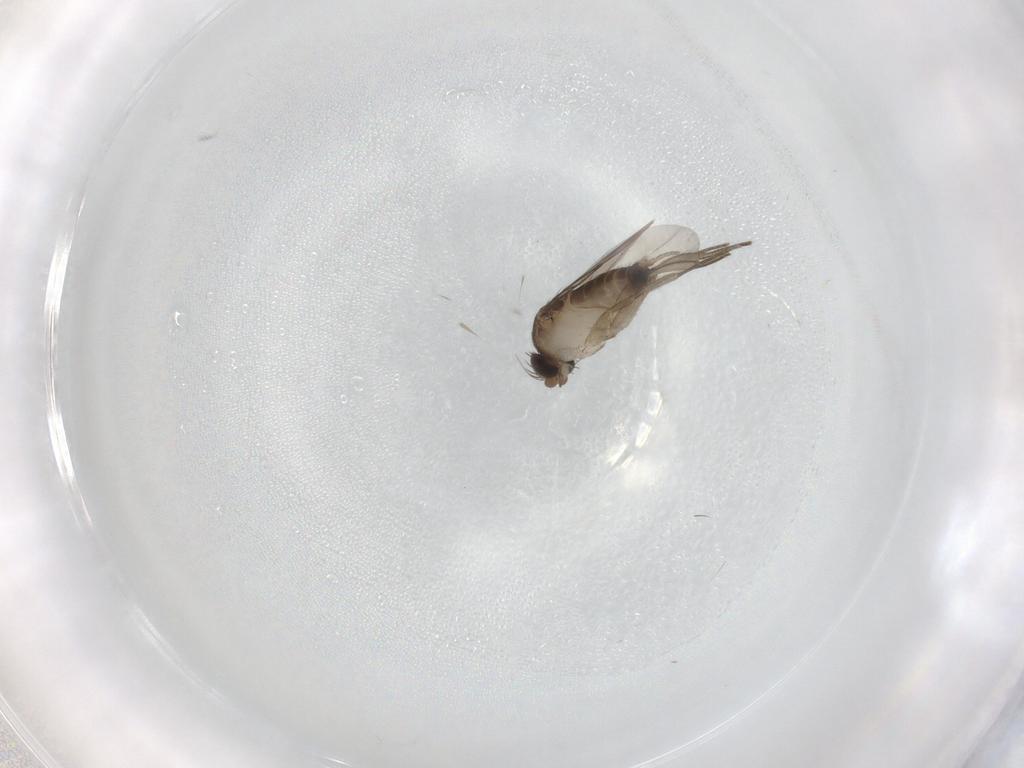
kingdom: Animalia
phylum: Arthropoda
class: Insecta
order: Diptera
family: Phoridae
